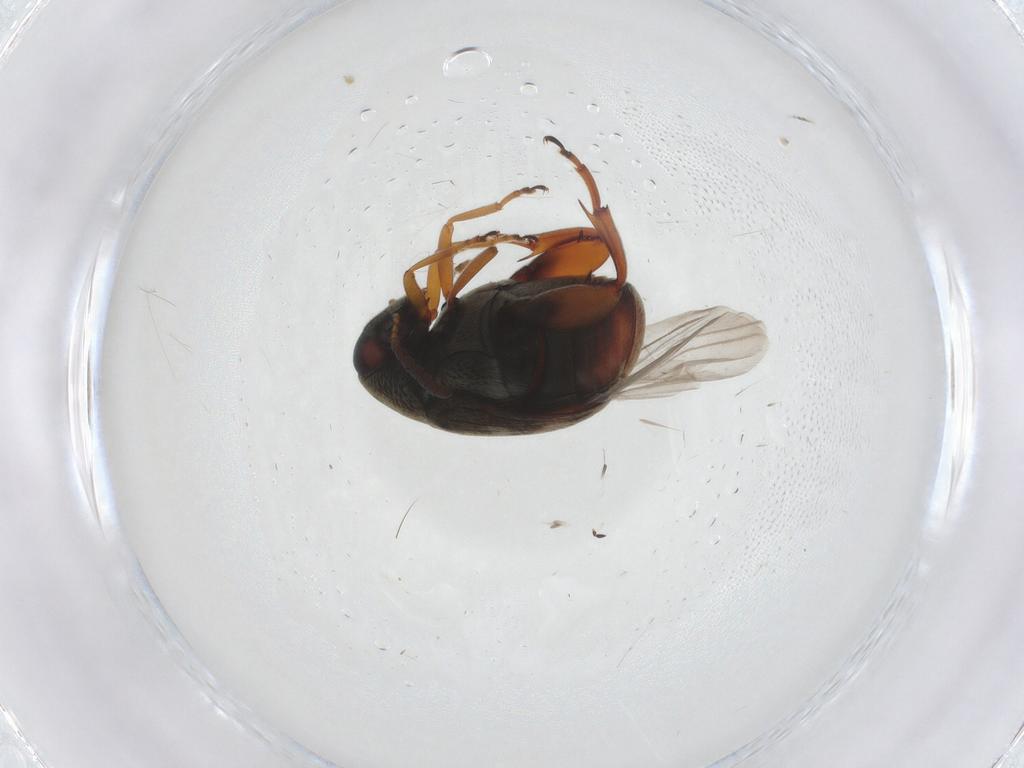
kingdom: Animalia
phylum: Arthropoda
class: Insecta
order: Coleoptera
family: Chrysomelidae
